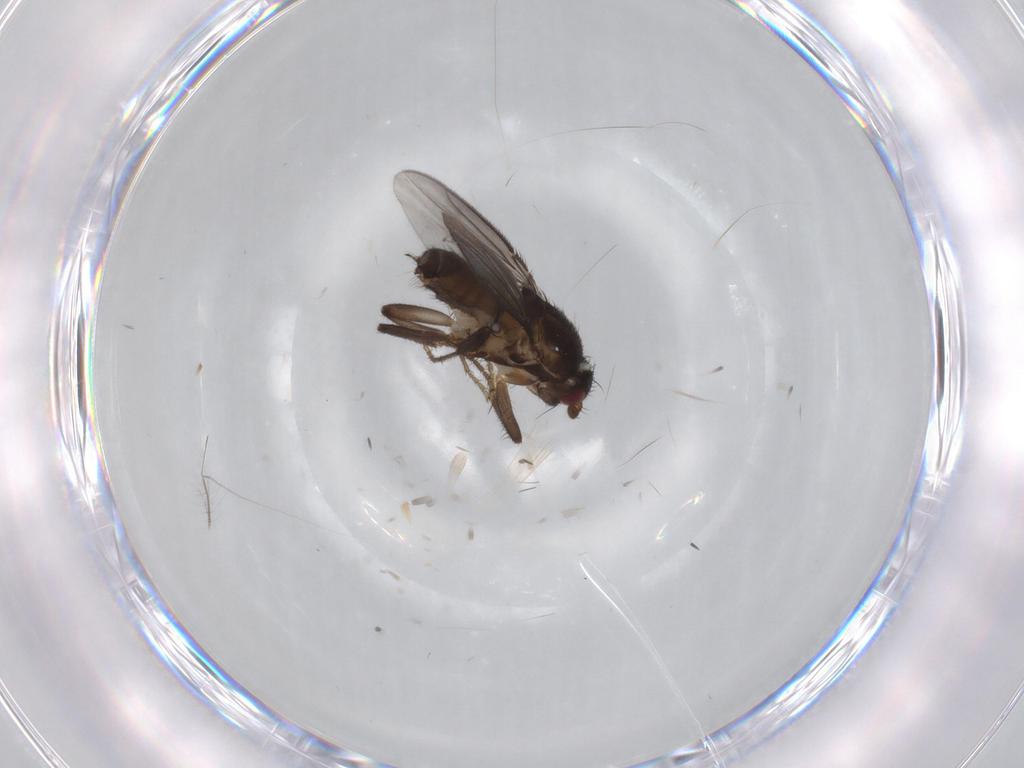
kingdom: Animalia
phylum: Arthropoda
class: Insecta
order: Diptera
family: Sphaeroceridae
